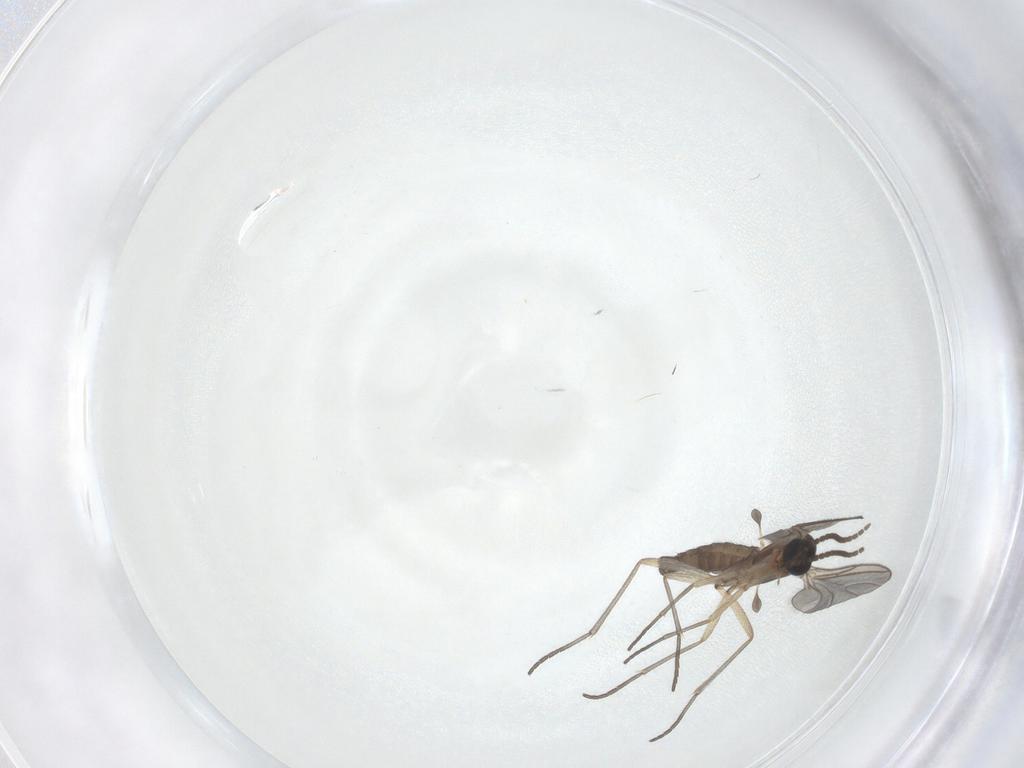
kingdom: Animalia
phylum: Arthropoda
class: Insecta
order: Diptera
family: Sciaridae
